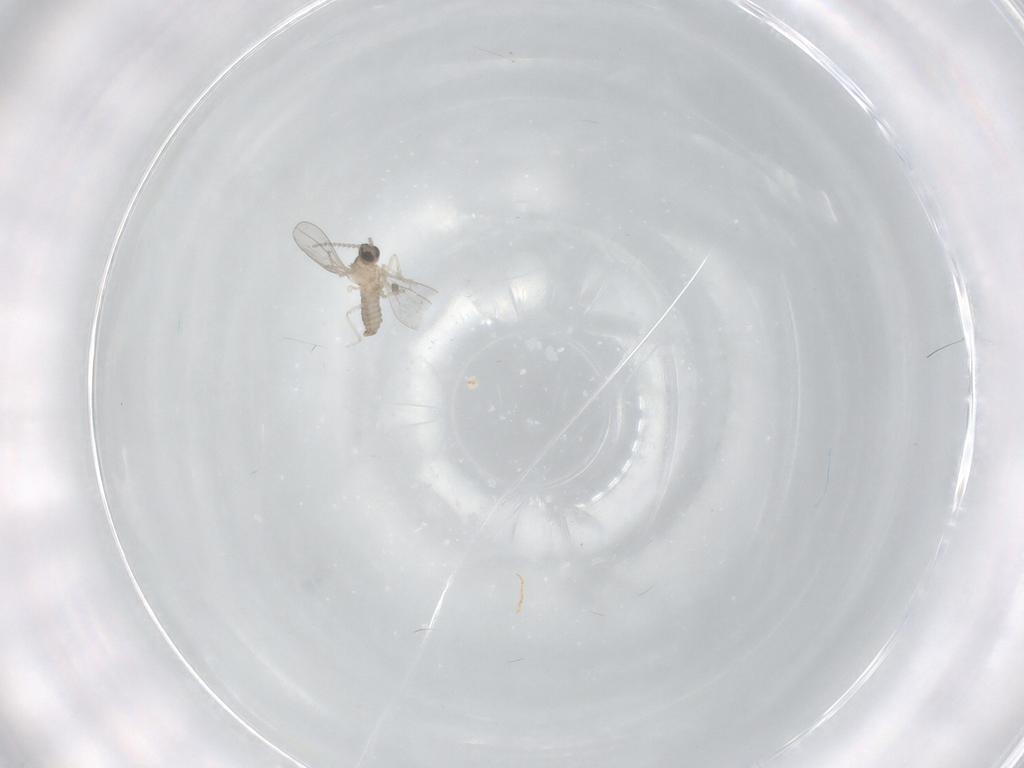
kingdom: Animalia
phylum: Arthropoda
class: Insecta
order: Diptera
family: Cecidomyiidae
